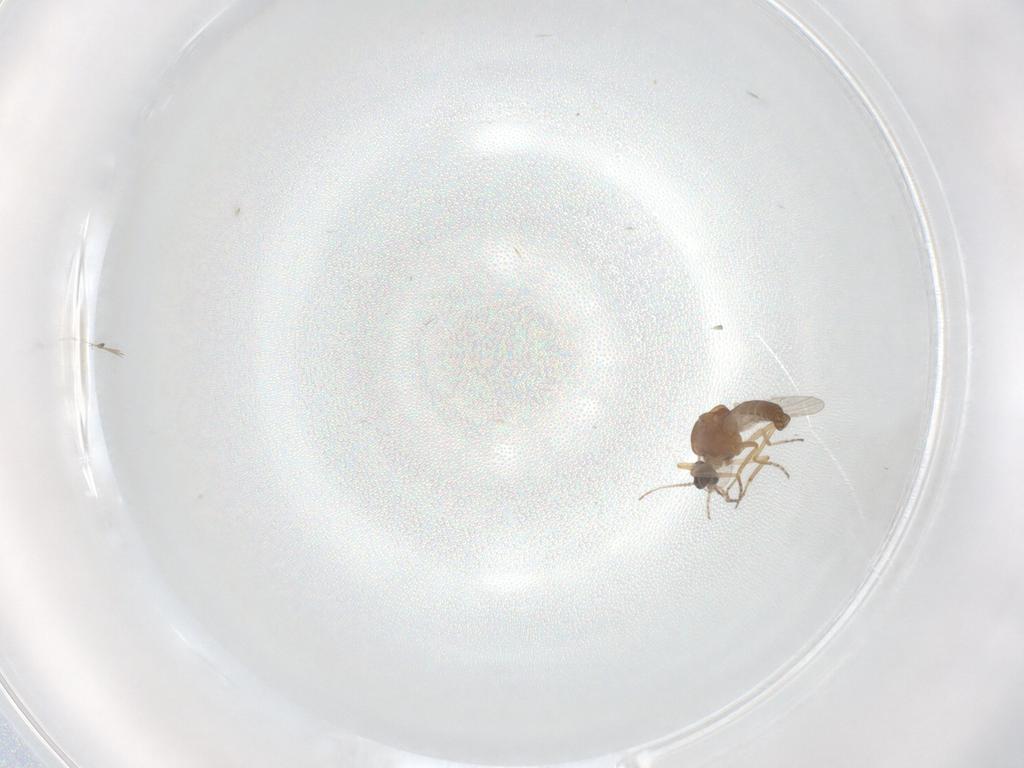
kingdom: Animalia
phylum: Arthropoda
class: Insecta
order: Diptera
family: Ceratopogonidae
